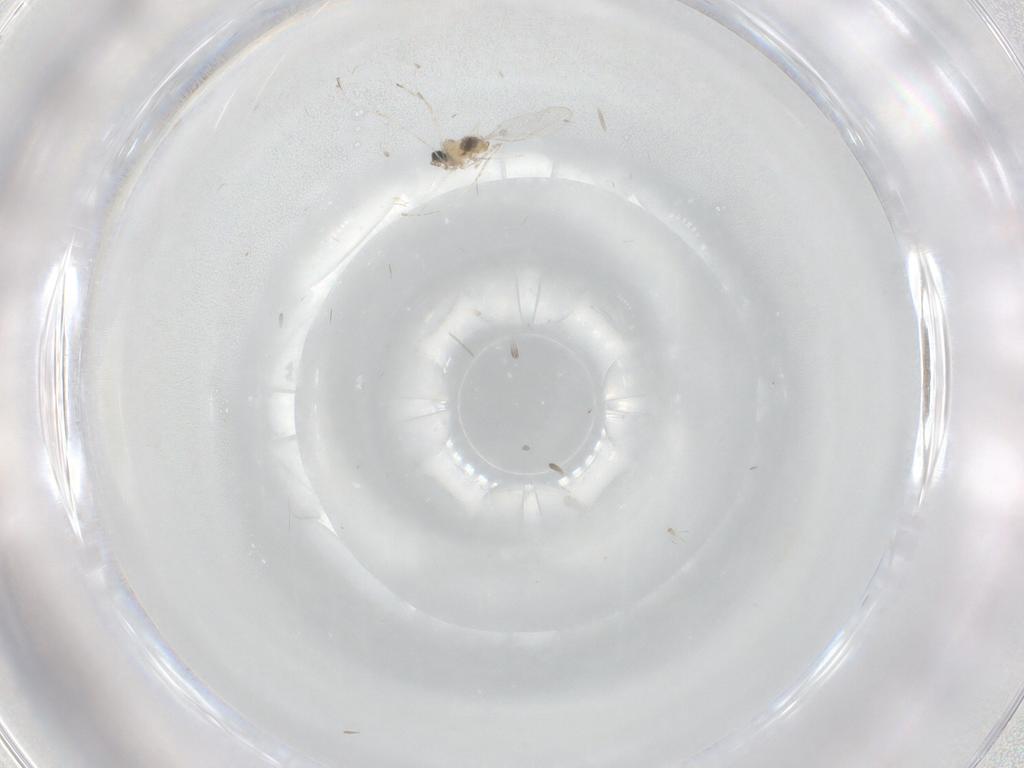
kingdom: Animalia
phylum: Arthropoda
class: Insecta
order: Diptera
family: Cecidomyiidae
